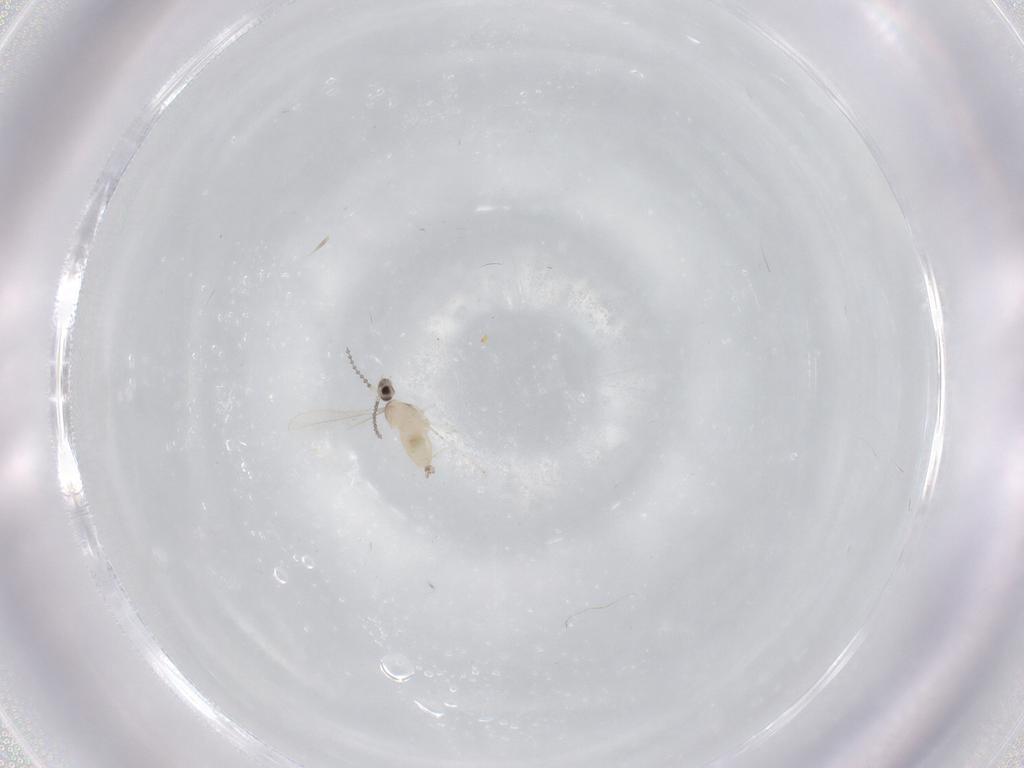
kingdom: Animalia
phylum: Arthropoda
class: Insecta
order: Diptera
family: Cecidomyiidae
